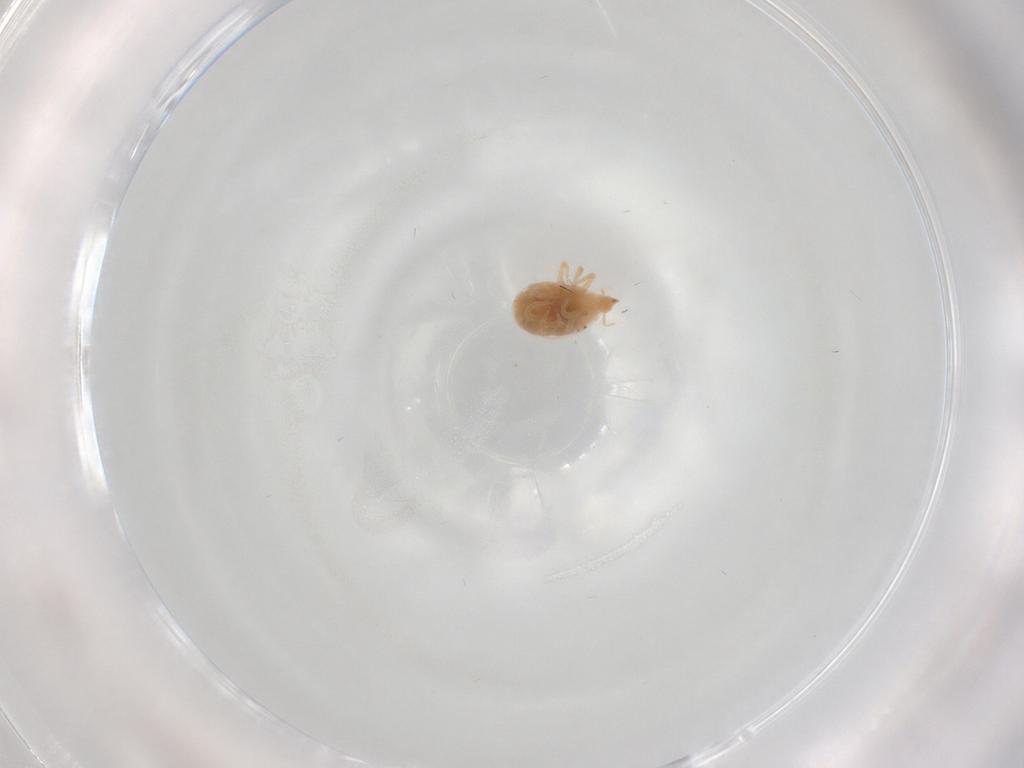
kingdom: Animalia
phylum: Arthropoda
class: Arachnida
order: Trombidiformes
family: Bdellidae
